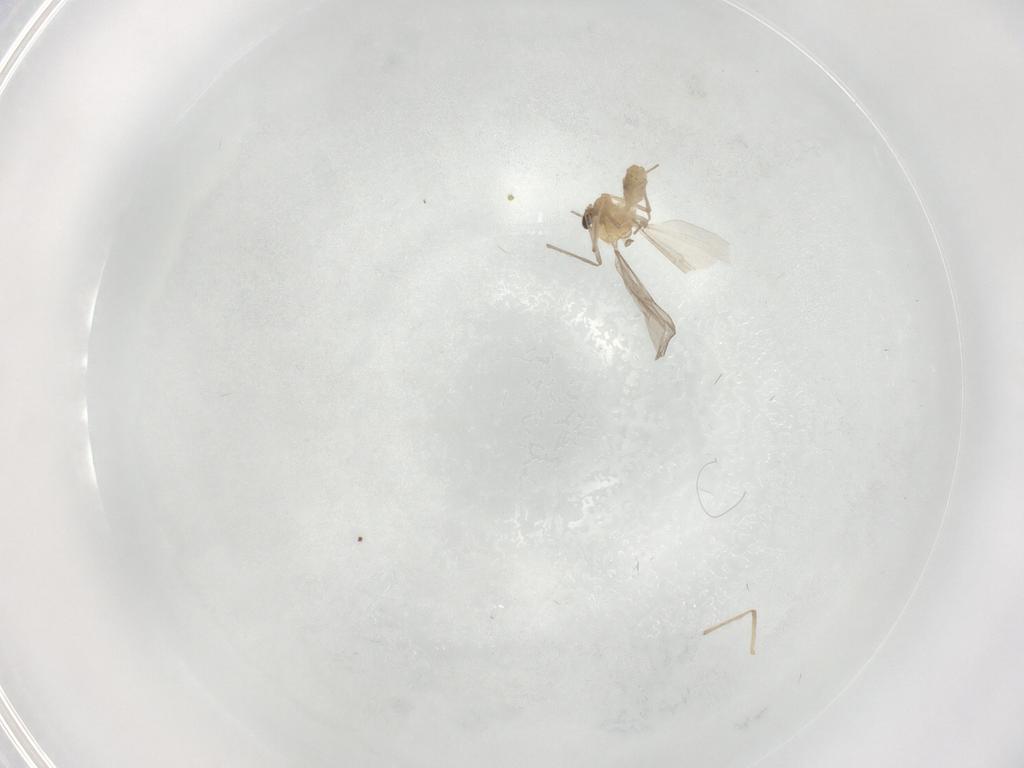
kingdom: Animalia
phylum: Arthropoda
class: Insecta
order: Diptera
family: Chironomidae
